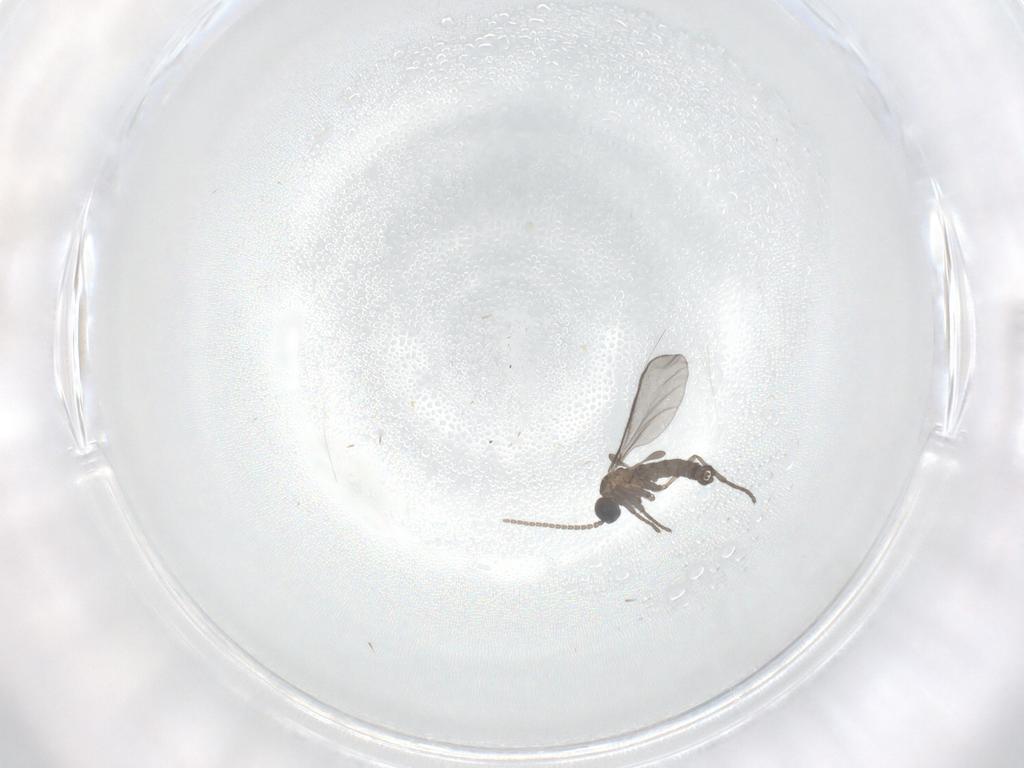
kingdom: Animalia
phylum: Arthropoda
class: Insecta
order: Diptera
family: Sciaridae
